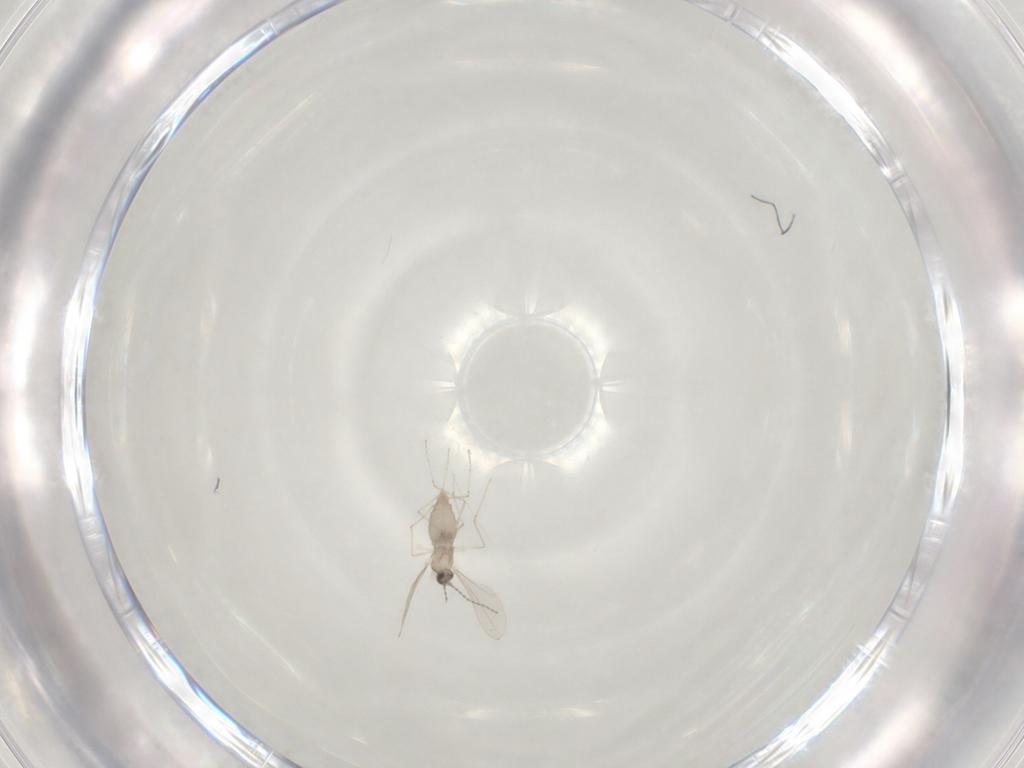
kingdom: Animalia
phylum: Arthropoda
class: Insecta
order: Diptera
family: Cecidomyiidae
